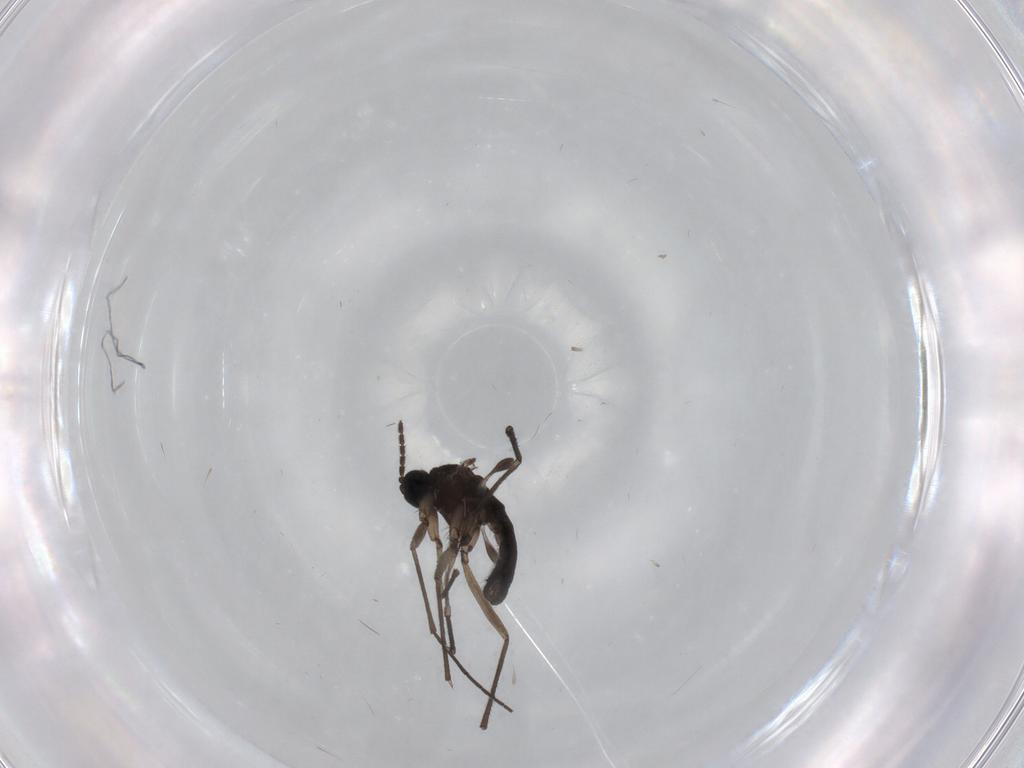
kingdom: Animalia
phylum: Arthropoda
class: Insecta
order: Diptera
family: Sciaridae
